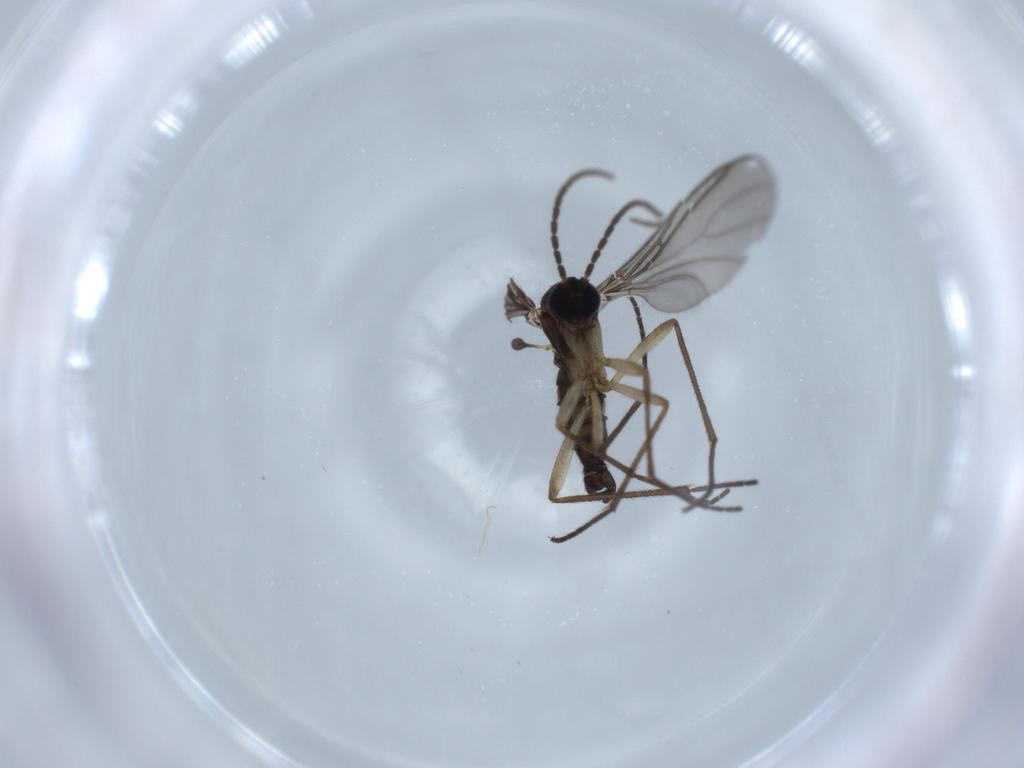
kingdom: Animalia
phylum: Arthropoda
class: Insecta
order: Diptera
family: Sciaridae
